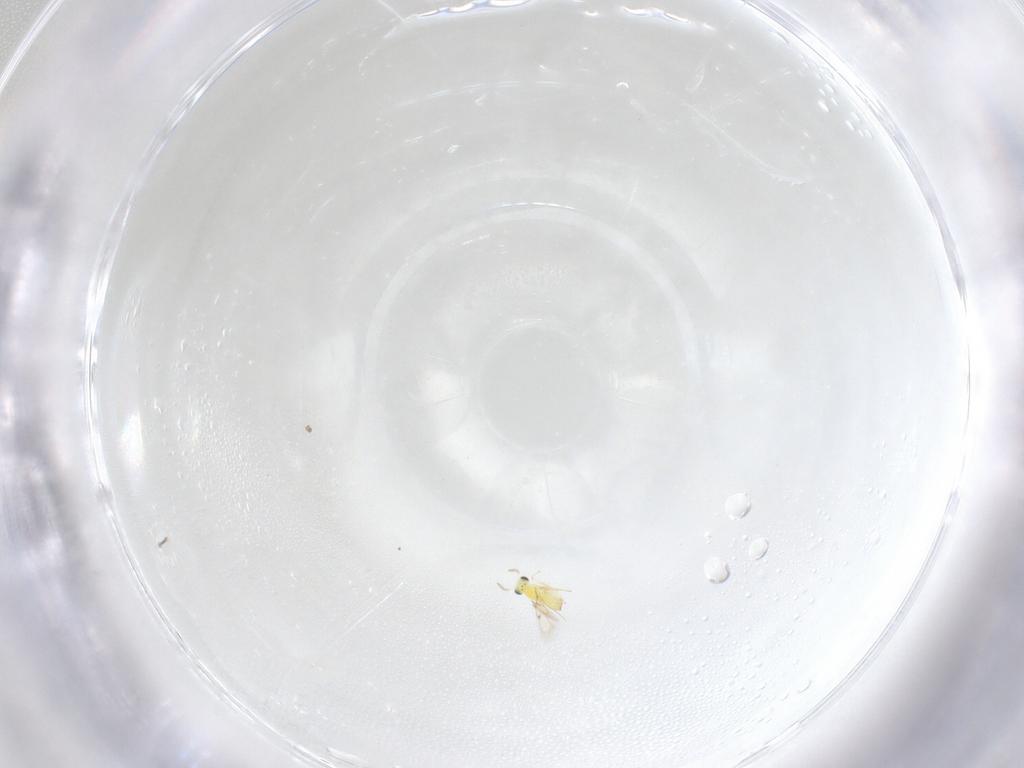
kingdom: Animalia
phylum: Arthropoda
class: Insecta
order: Hymenoptera
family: Trichogrammatidae
